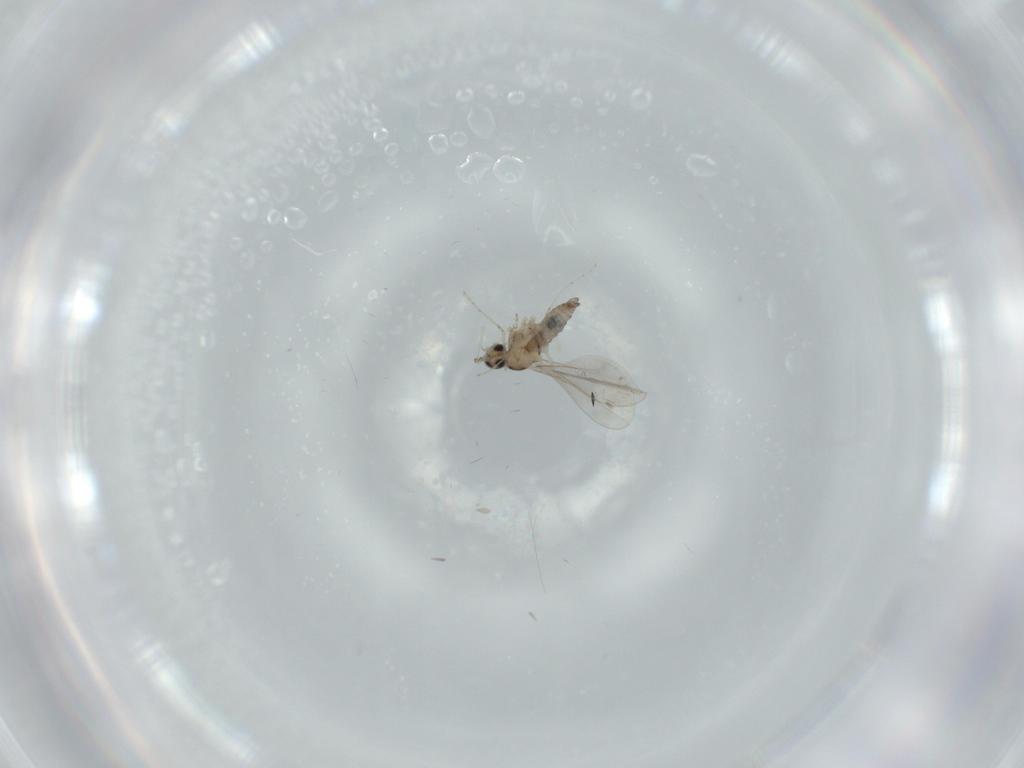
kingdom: Animalia
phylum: Arthropoda
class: Insecta
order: Diptera
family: Cecidomyiidae
